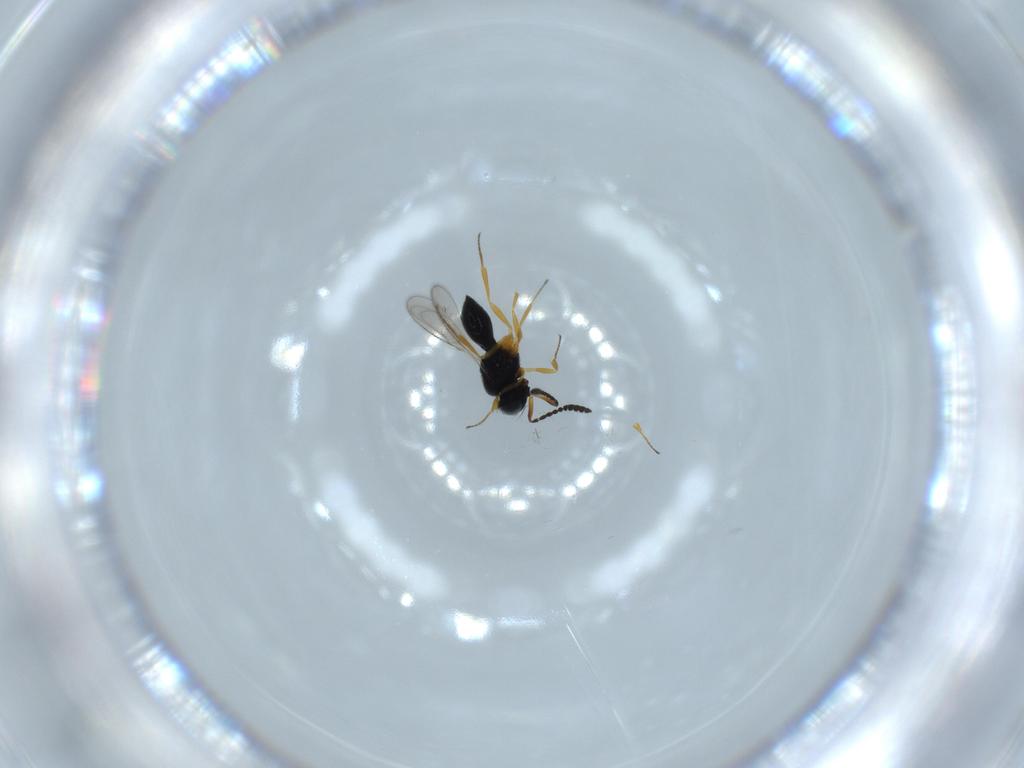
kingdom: Animalia
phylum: Arthropoda
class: Insecta
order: Hymenoptera
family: Scelionidae
